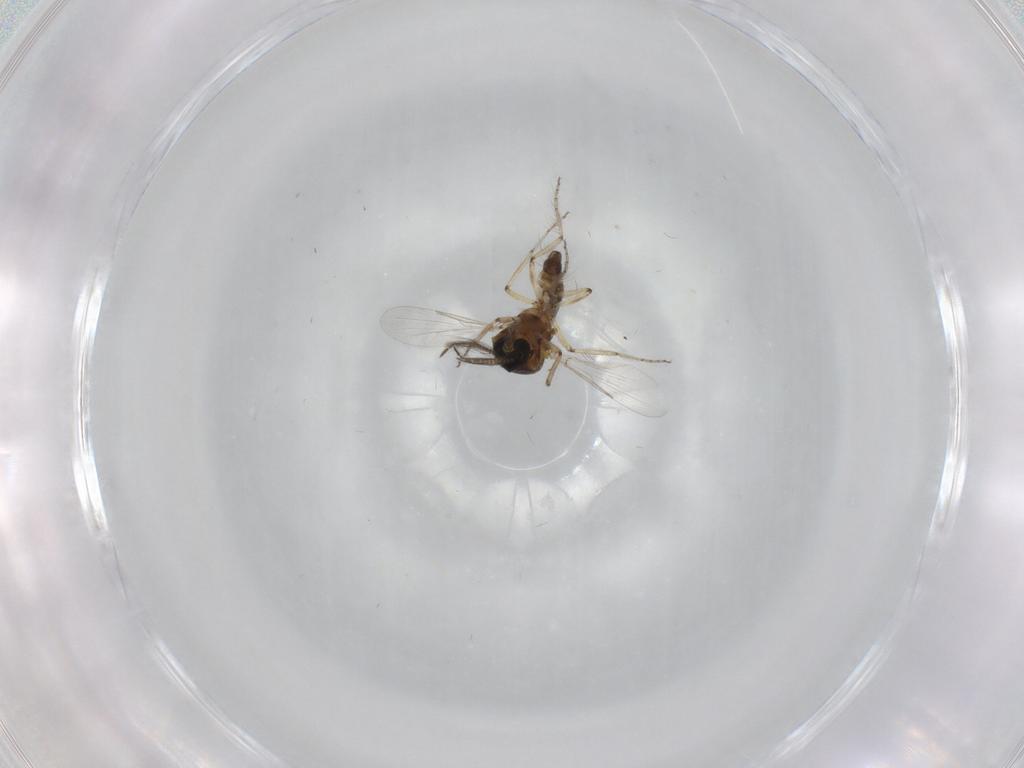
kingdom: Animalia
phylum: Arthropoda
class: Insecta
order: Diptera
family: Ceratopogonidae
